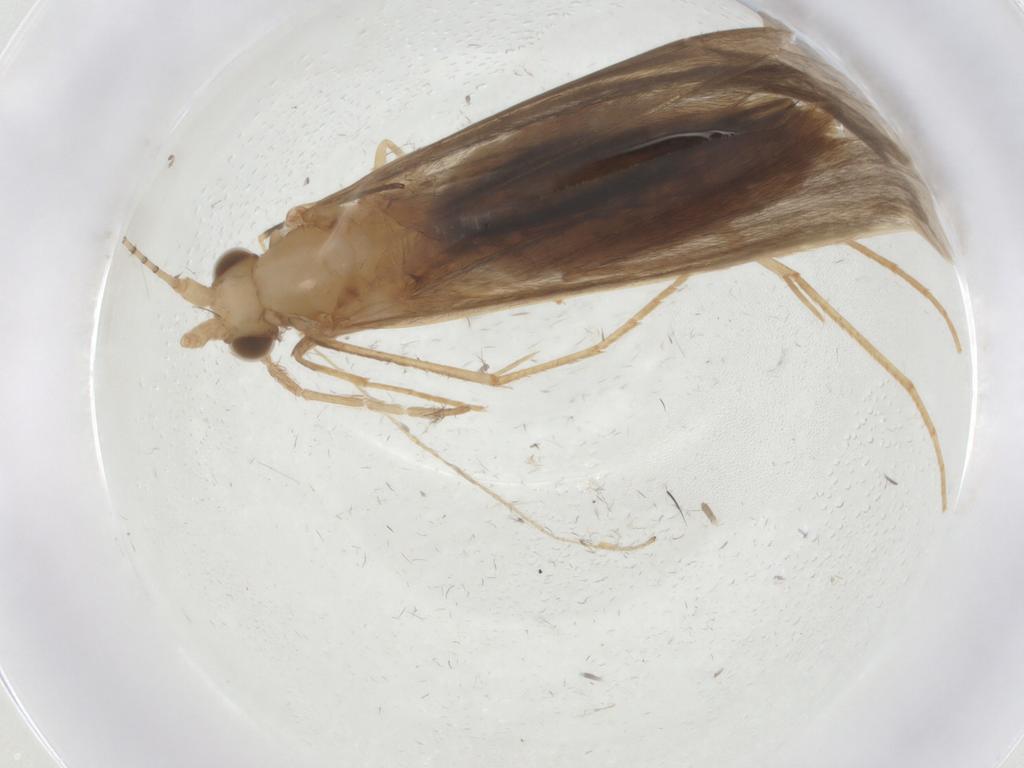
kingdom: Animalia
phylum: Arthropoda
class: Insecta
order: Trichoptera
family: Leptoceridae
